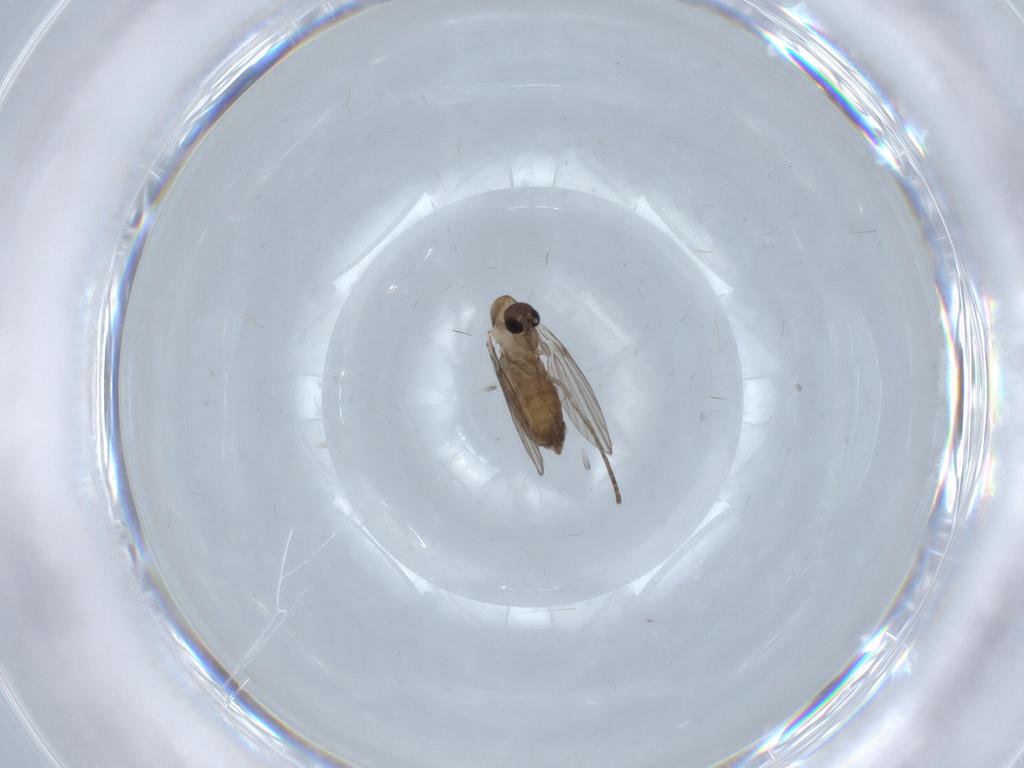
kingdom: Animalia
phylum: Arthropoda
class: Insecta
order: Diptera
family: Psychodidae
